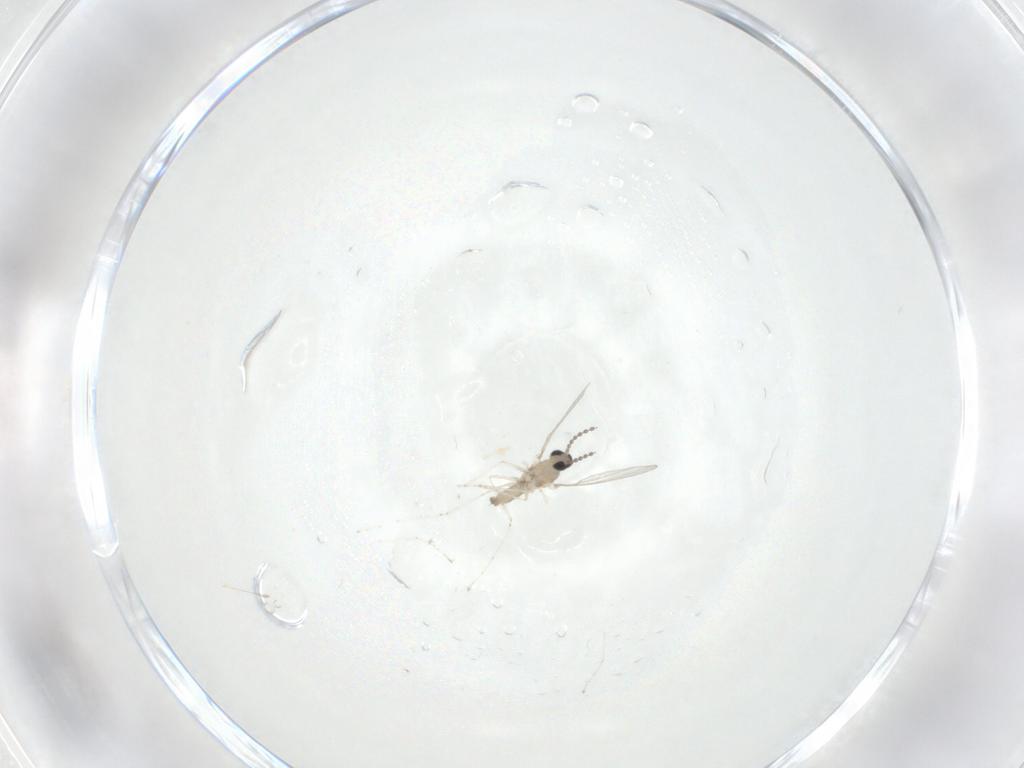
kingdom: Animalia
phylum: Arthropoda
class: Insecta
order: Diptera
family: Cecidomyiidae
